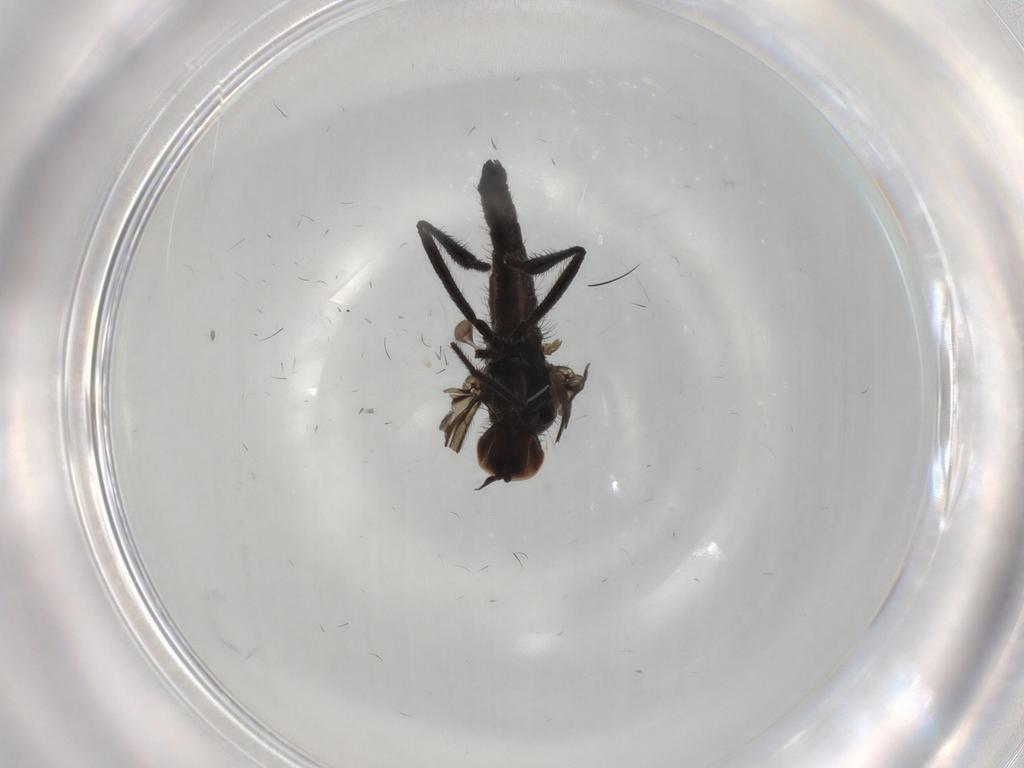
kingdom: Animalia
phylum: Arthropoda
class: Insecta
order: Diptera
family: Hybotidae
